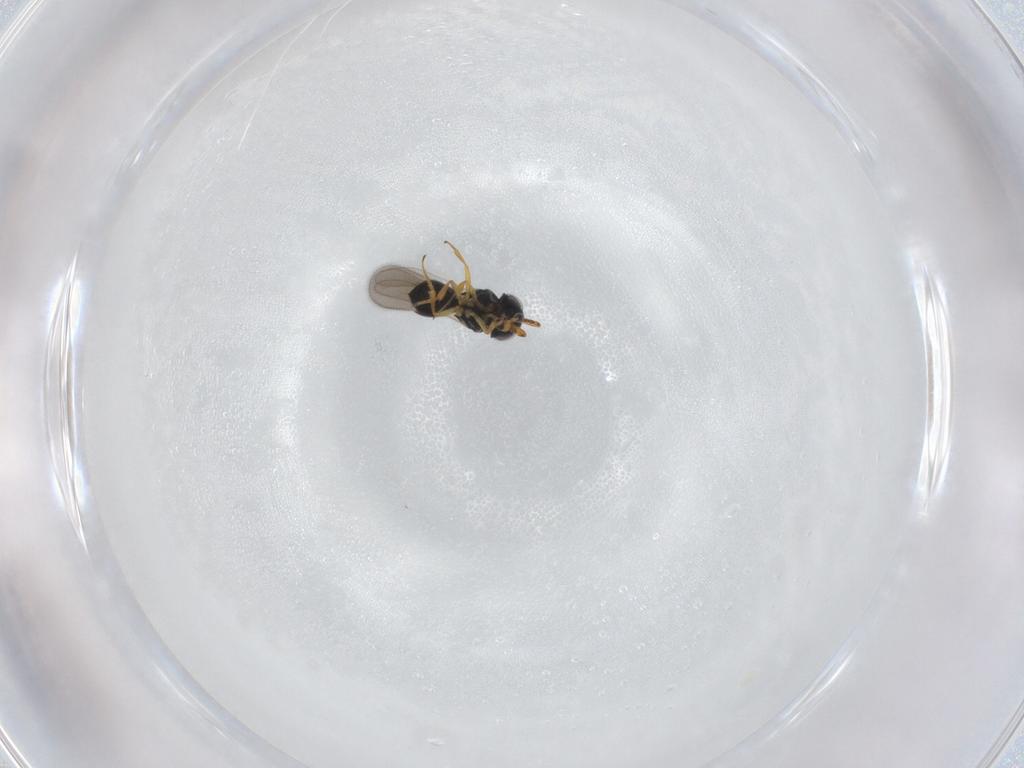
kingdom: Animalia
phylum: Arthropoda
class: Insecta
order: Hymenoptera
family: Scelionidae
